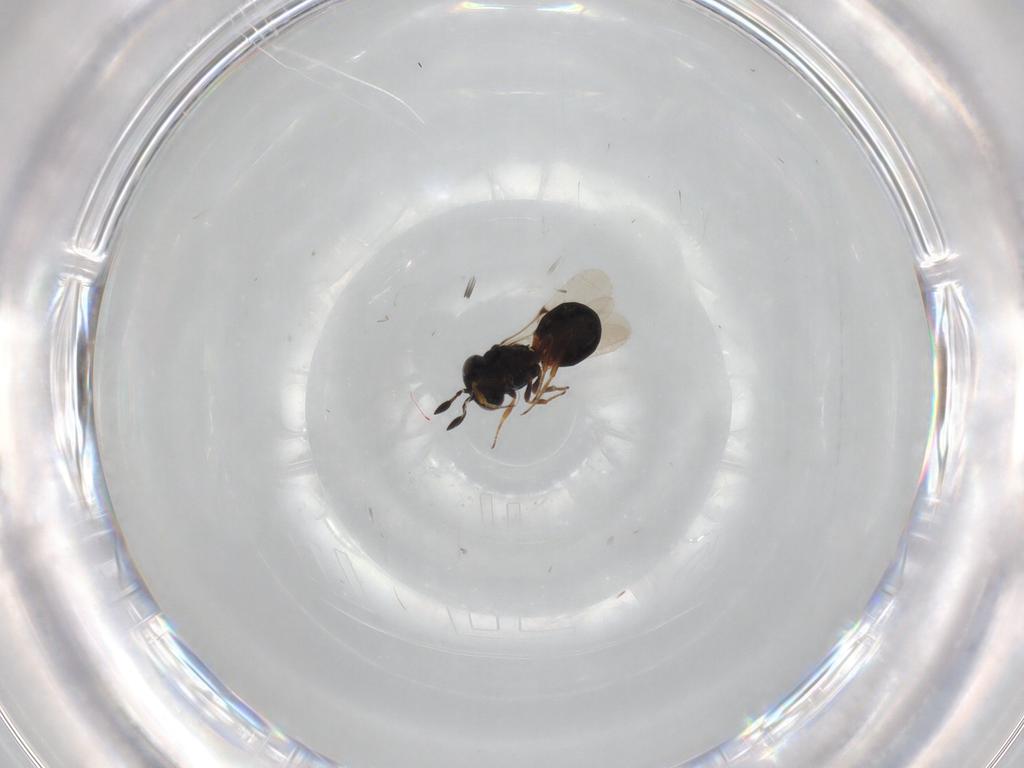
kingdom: Animalia
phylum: Arthropoda
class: Insecta
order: Hymenoptera
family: Scelionidae
